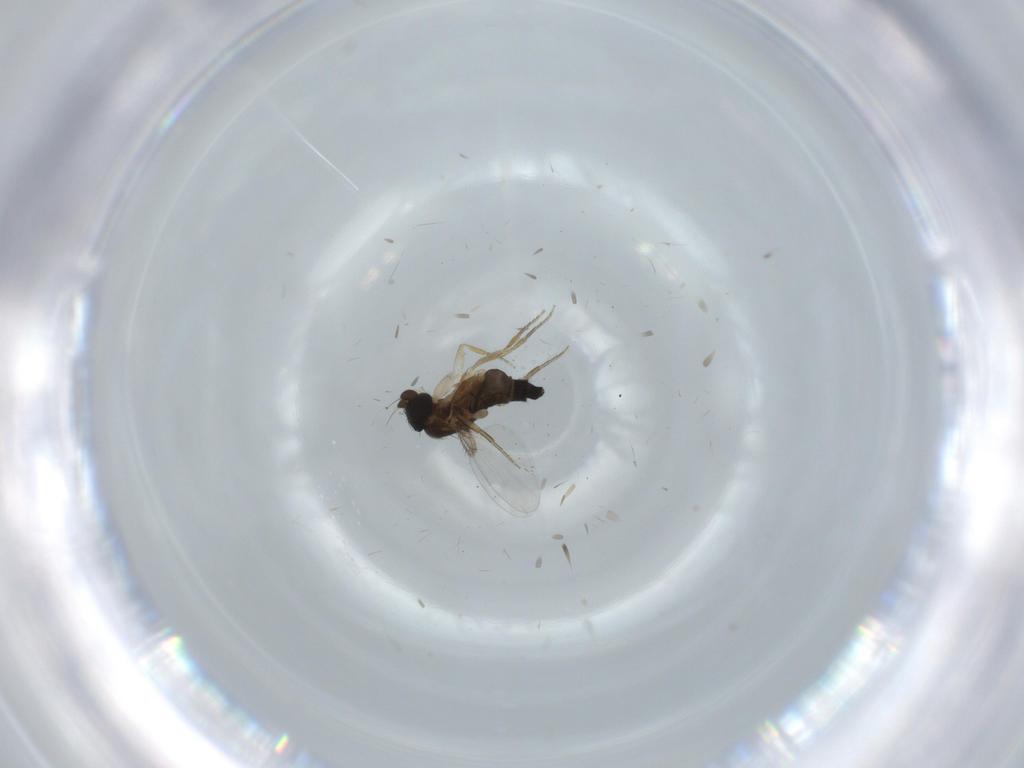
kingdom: Animalia
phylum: Arthropoda
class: Insecta
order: Diptera
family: Phoridae
